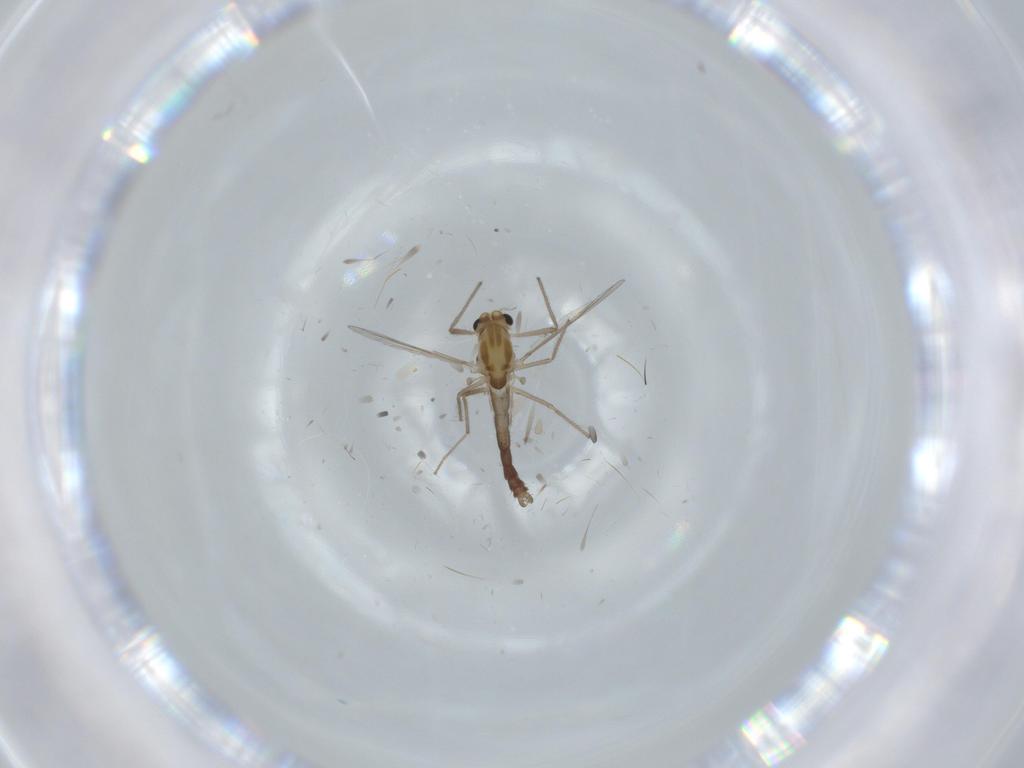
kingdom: Animalia
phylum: Arthropoda
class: Insecta
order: Diptera
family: Chironomidae
